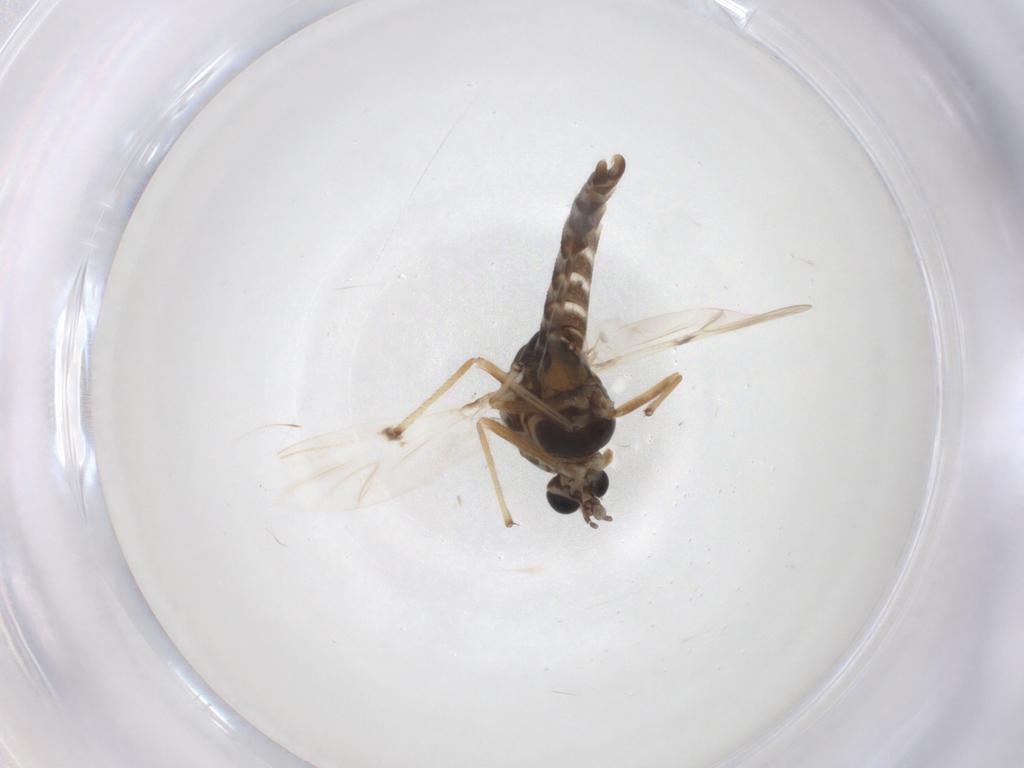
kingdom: Animalia
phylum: Arthropoda
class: Insecta
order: Diptera
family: Chironomidae
